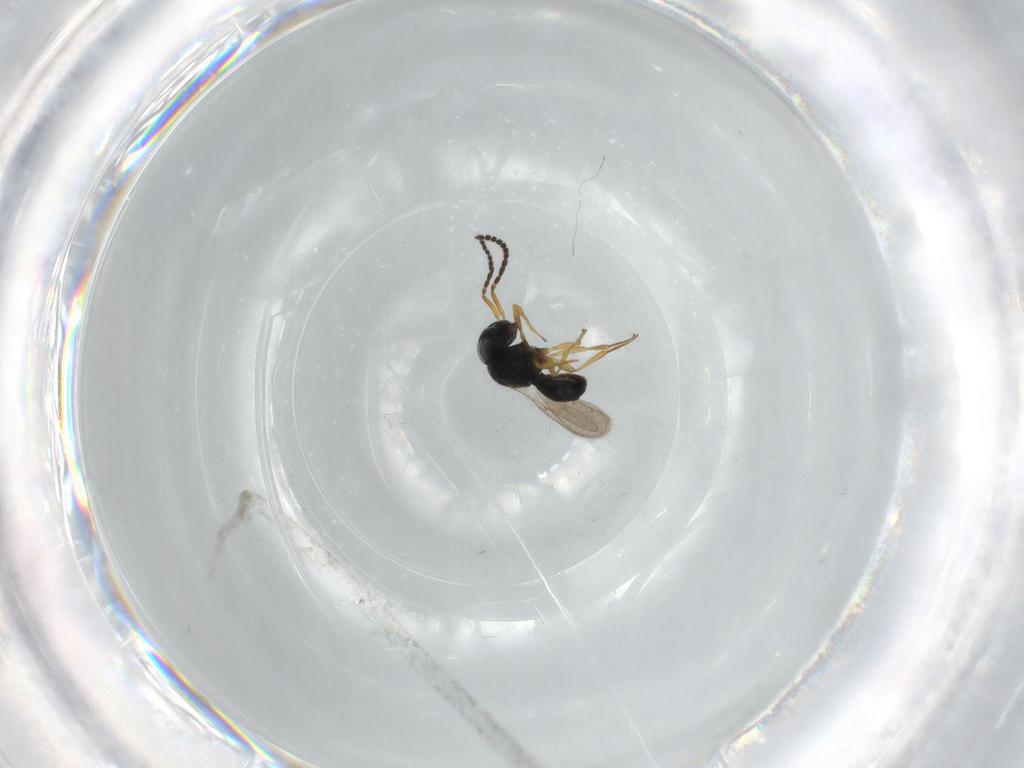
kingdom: Animalia
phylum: Arthropoda
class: Insecta
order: Hymenoptera
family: Scelionidae
